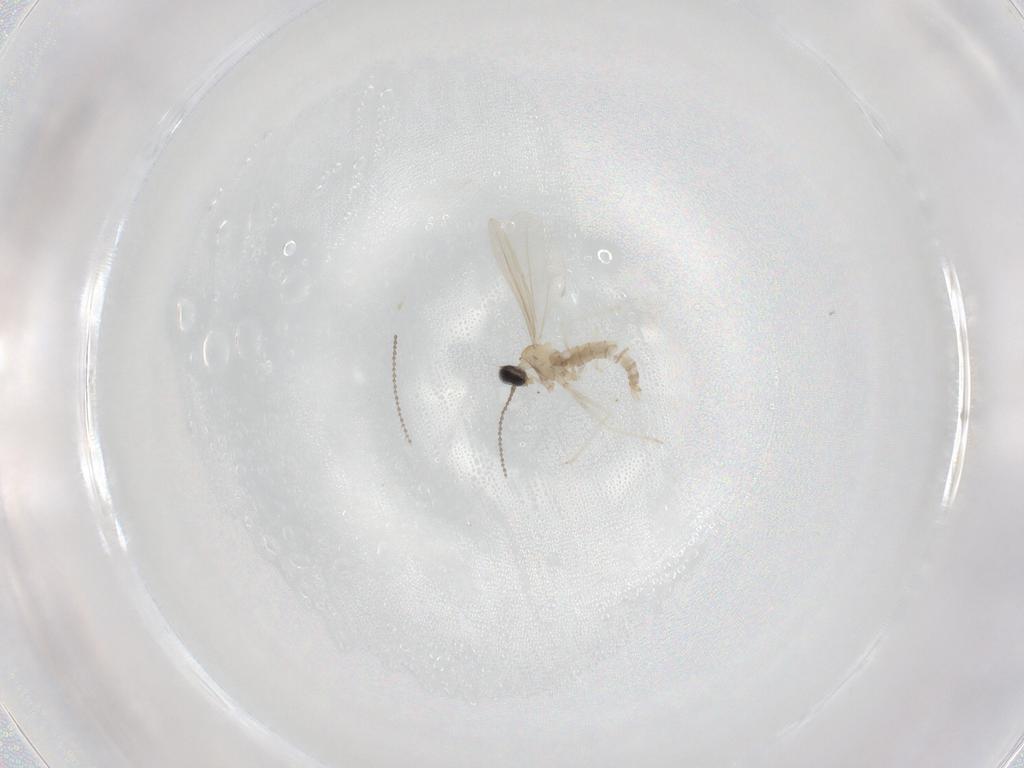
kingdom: Animalia
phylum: Arthropoda
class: Insecta
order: Diptera
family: Cecidomyiidae
